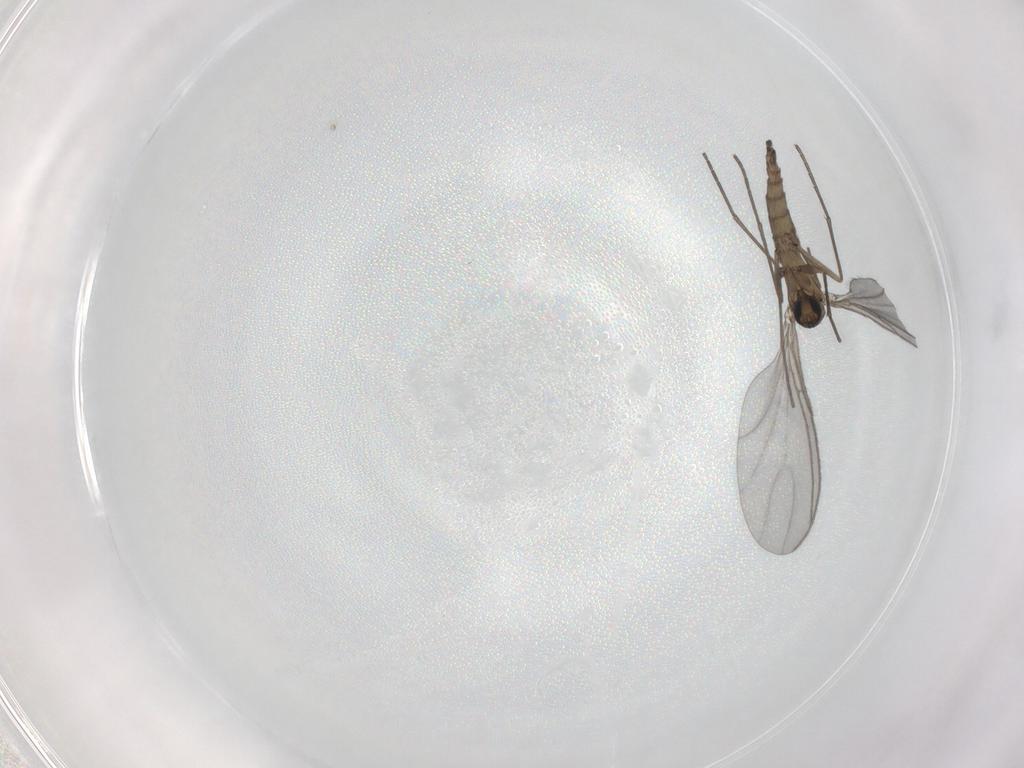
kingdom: Animalia
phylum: Arthropoda
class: Insecta
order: Diptera
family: Sciaridae
